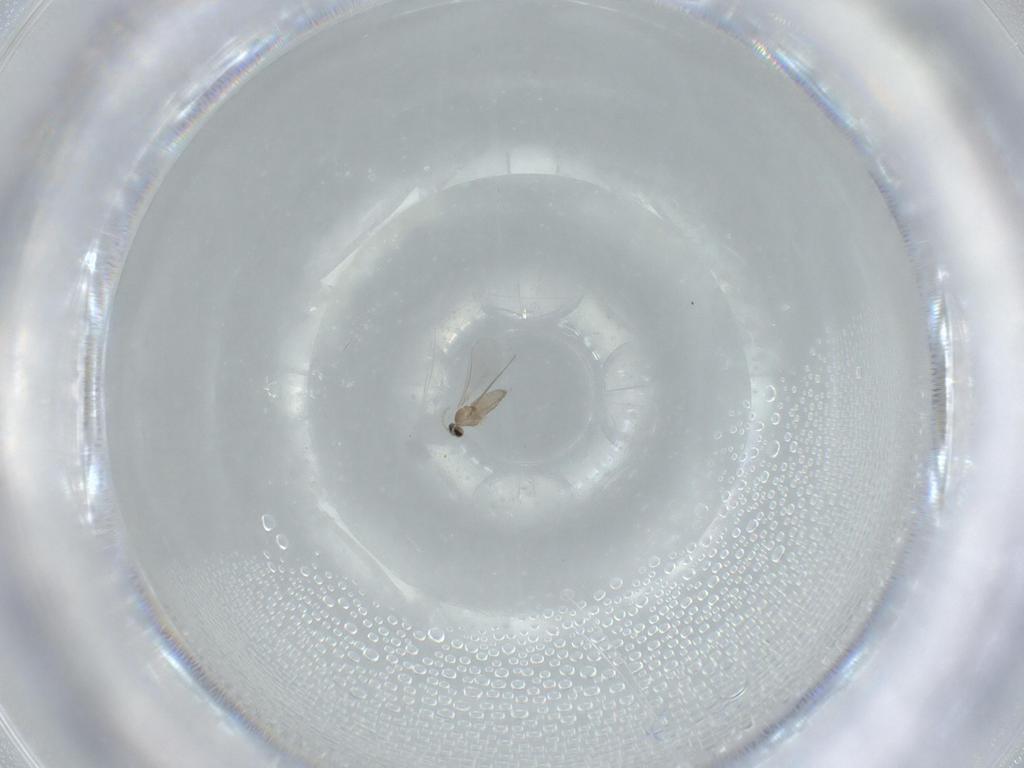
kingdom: Animalia
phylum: Arthropoda
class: Insecta
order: Diptera
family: Cecidomyiidae
